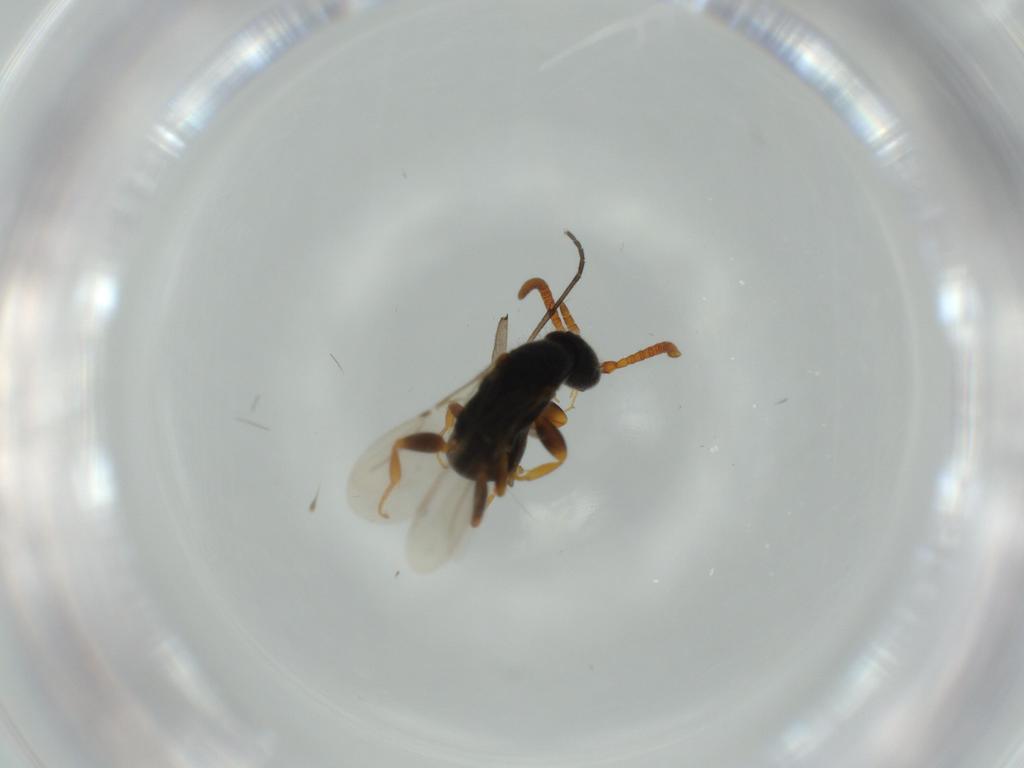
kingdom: Animalia
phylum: Arthropoda
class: Insecta
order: Hymenoptera
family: Bethylidae
